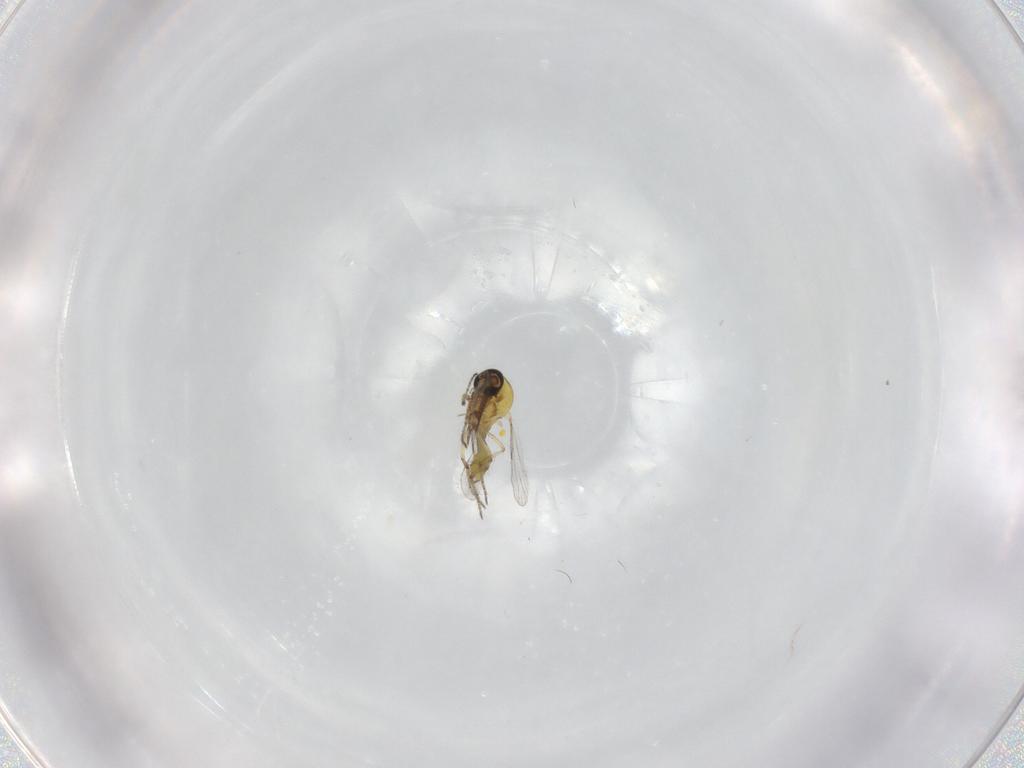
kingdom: Animalia
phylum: Arthropoda
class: Insecta
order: Diptera
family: Ceratopogonidae
